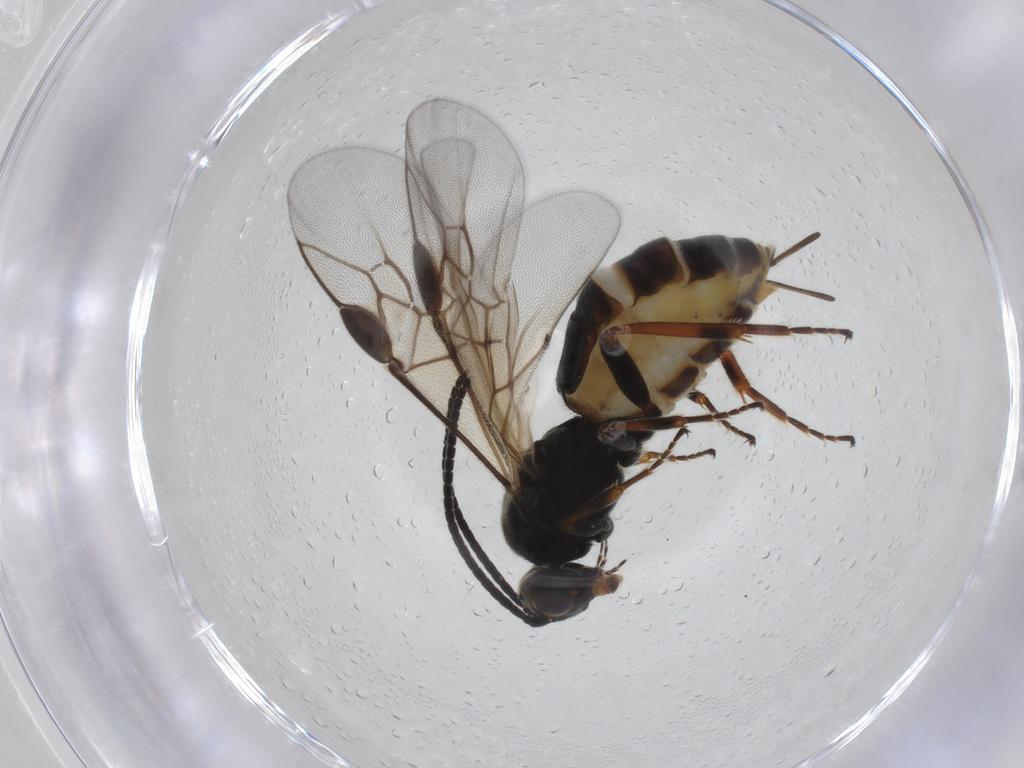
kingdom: Animalia
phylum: Arthropoda
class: Insecta
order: Hymenoptera
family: Braconidae
